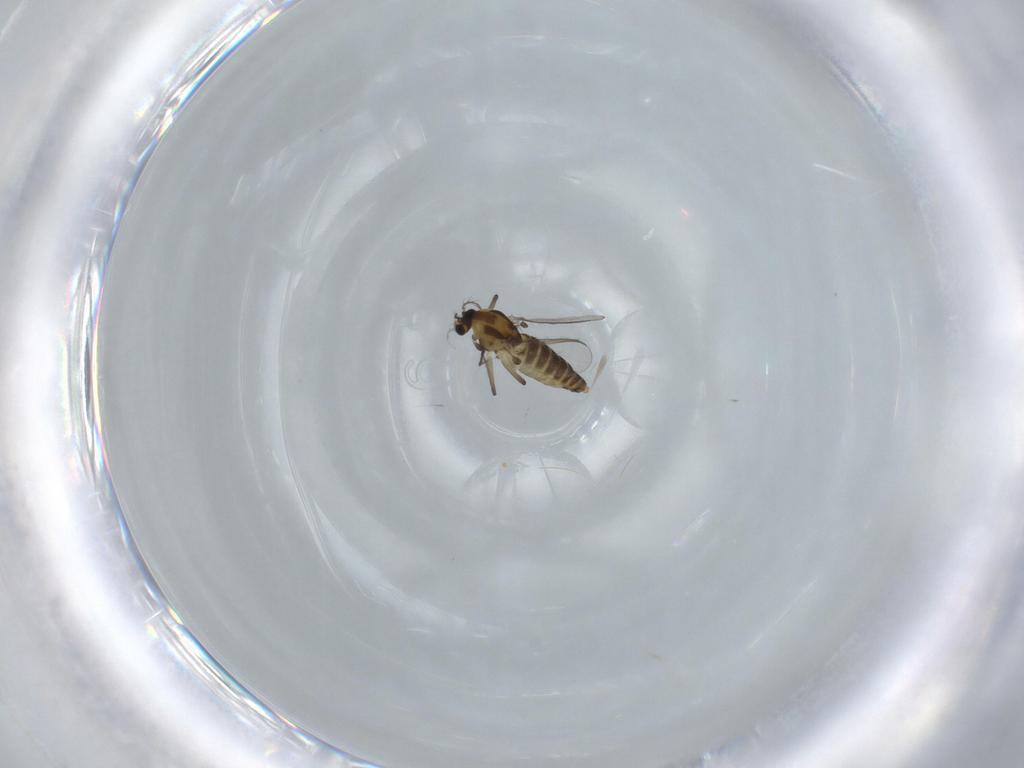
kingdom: Animalia
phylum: Arthropoda
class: Insecta
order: Diptera
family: Chironomidae
